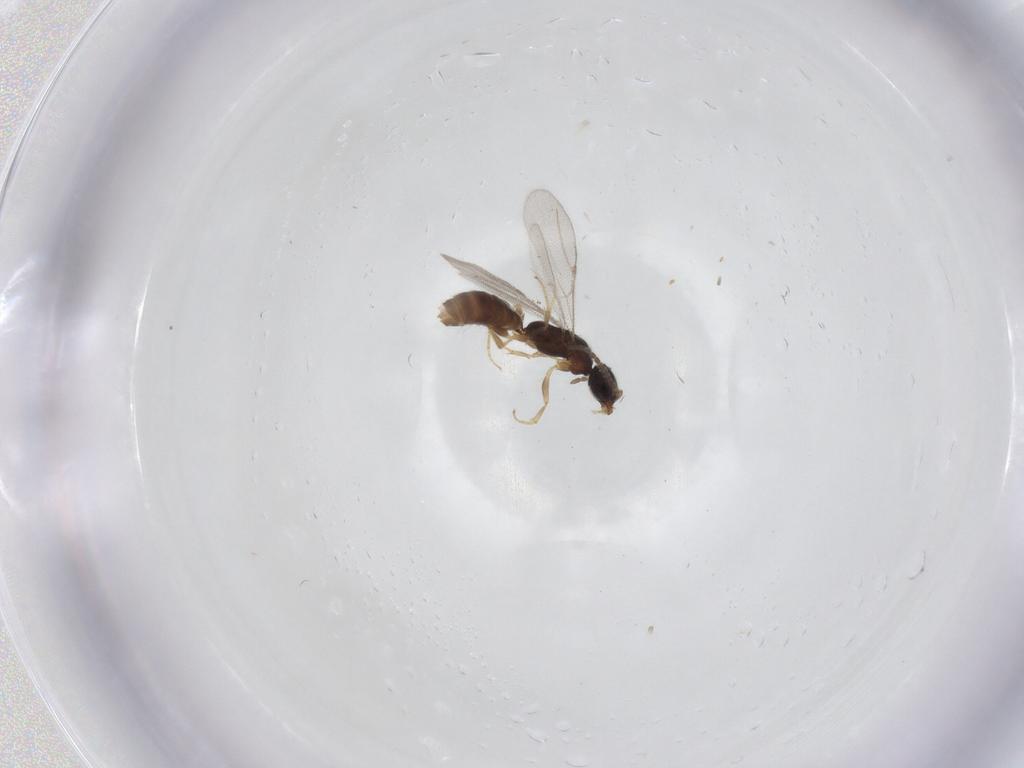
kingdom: Animalia
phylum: Arthropoda
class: Insecta
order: Hymenoptera
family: Bethylidae
